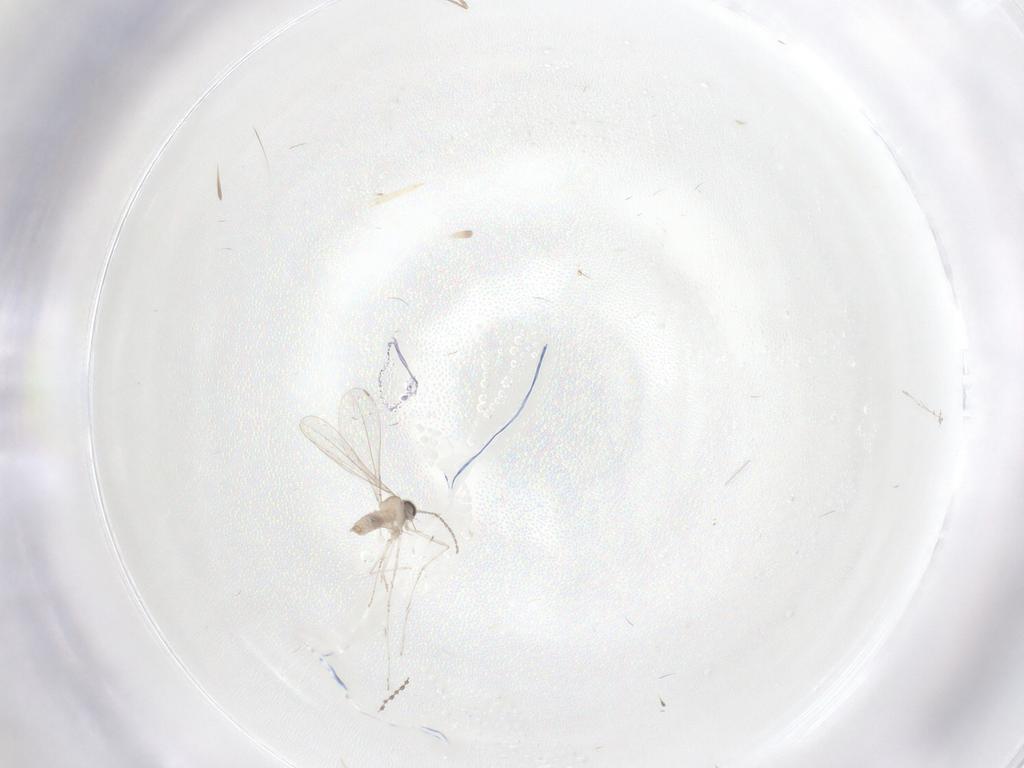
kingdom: Animalia
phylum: Arthropoda
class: Insecta
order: Diptera
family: Cecidomyiidae
